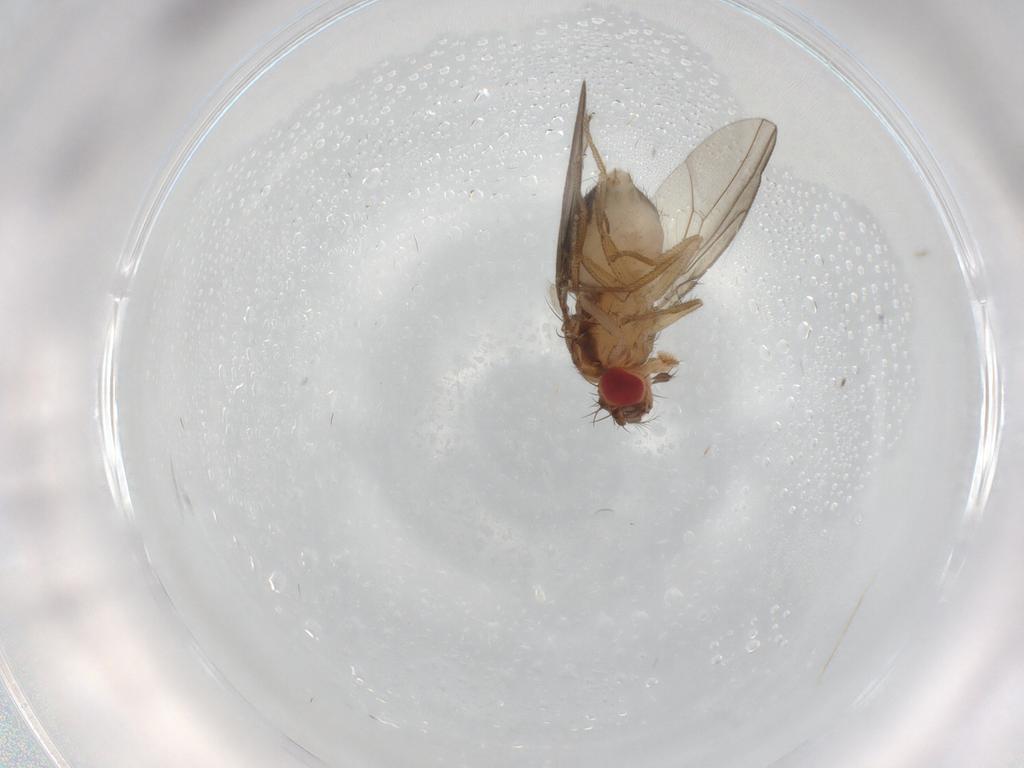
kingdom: Animalia
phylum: Arthropoda
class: Insecta
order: Diptera
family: Drosophilidae
